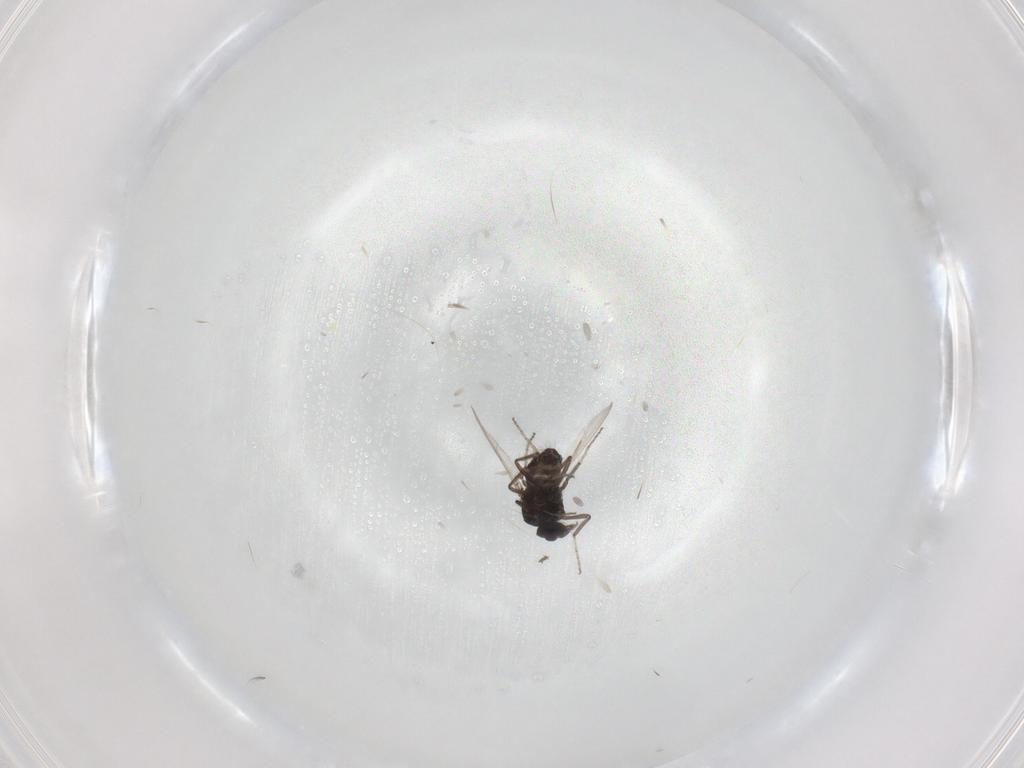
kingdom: Animalia
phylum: Arthropoda
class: Insecta
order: Diptera
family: Ceratopogonidae
